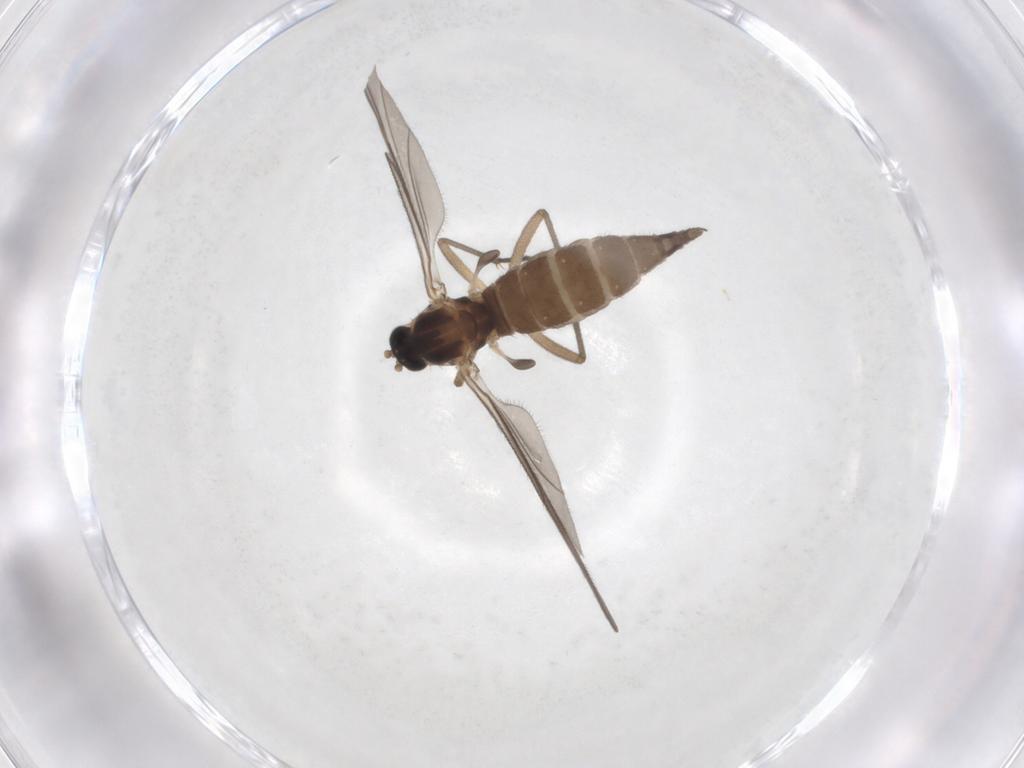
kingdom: Animalia
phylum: Arthropoda
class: Insecta
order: Diptera
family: Sciaridae
